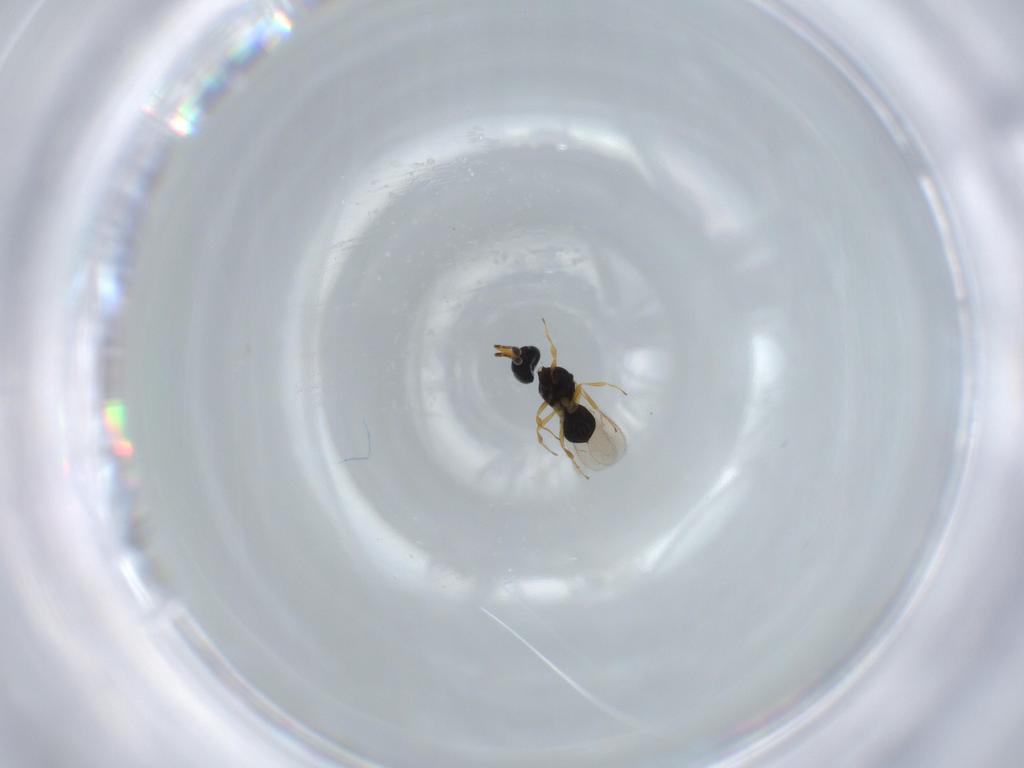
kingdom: Animalia
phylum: Arthropoda
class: Insecta
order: Hymenoptera
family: Scelionidae
